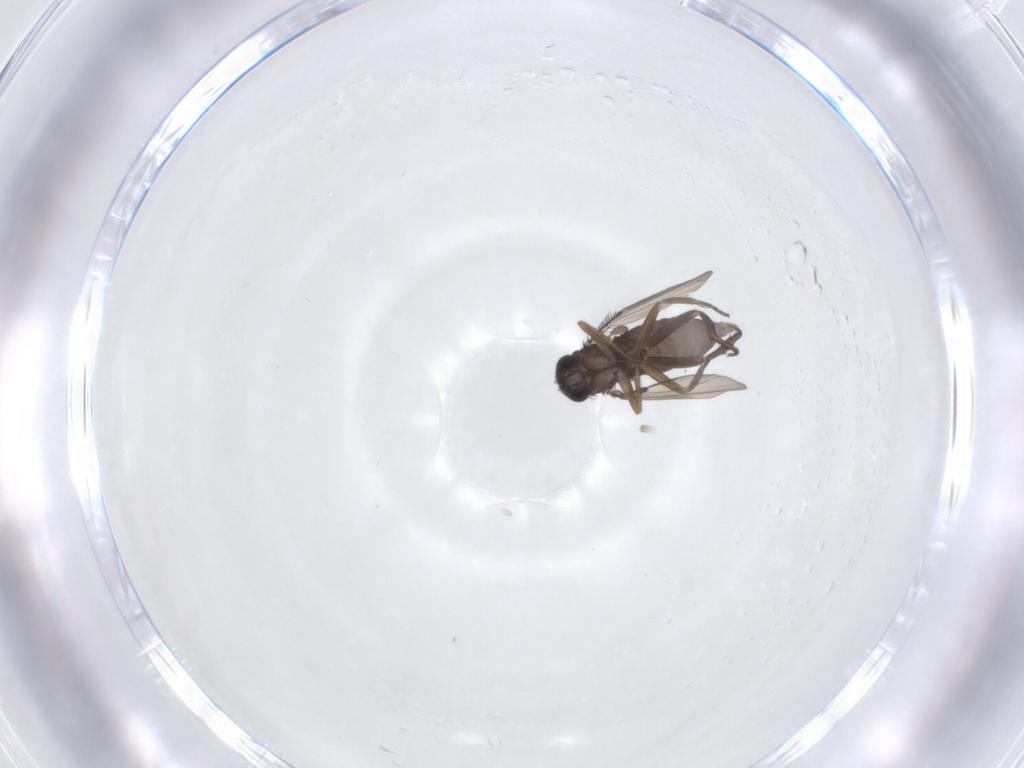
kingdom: Animalia
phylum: Arthropoda
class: Insecta
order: Diptera
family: Phoridae
